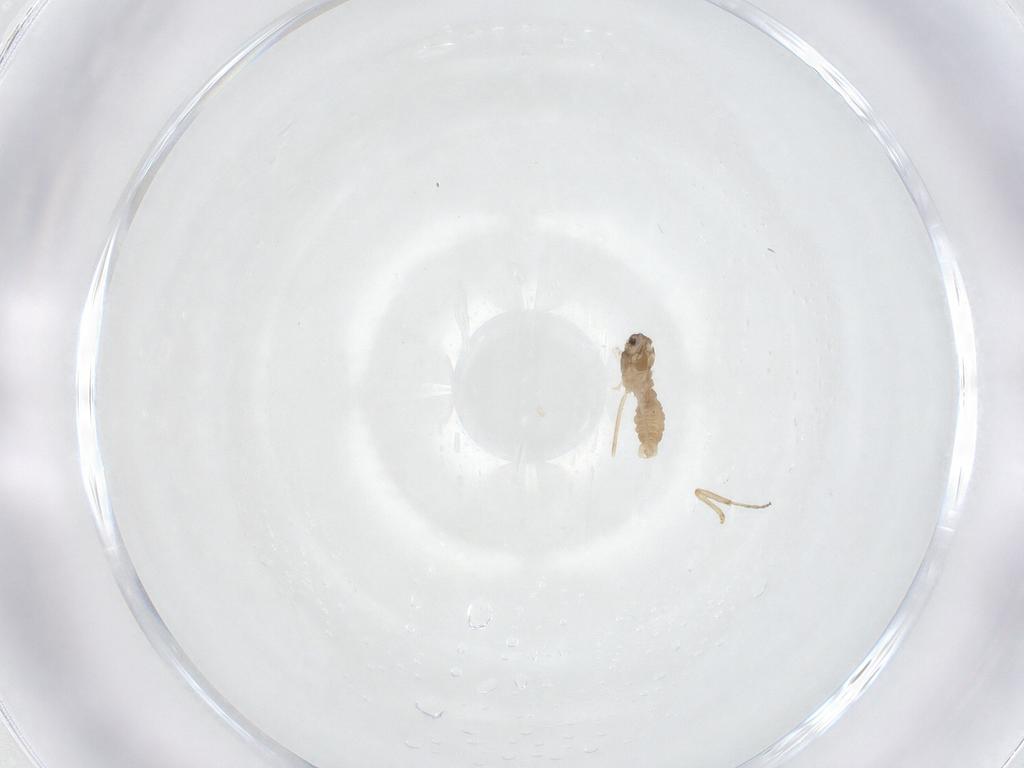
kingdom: Animalia
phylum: Arthropoda
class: Insecta
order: Diptera
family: Cecidomyiidae
